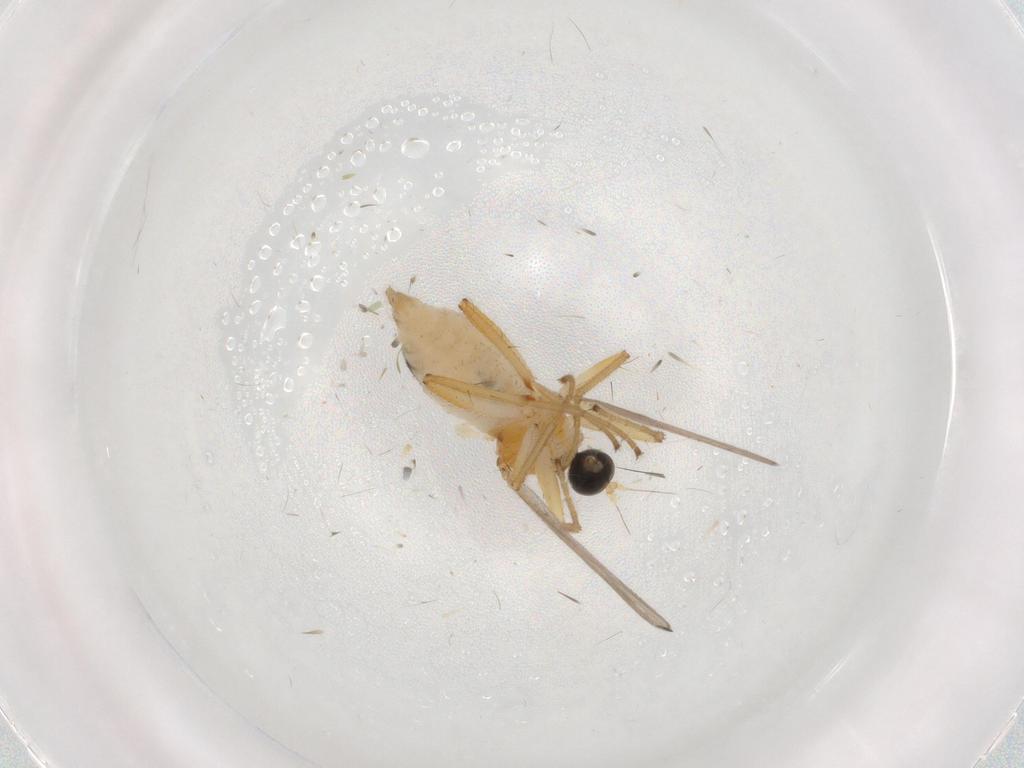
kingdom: Animalia
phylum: Arthropoda
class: Insecta
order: Diptera
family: Hybotidae
